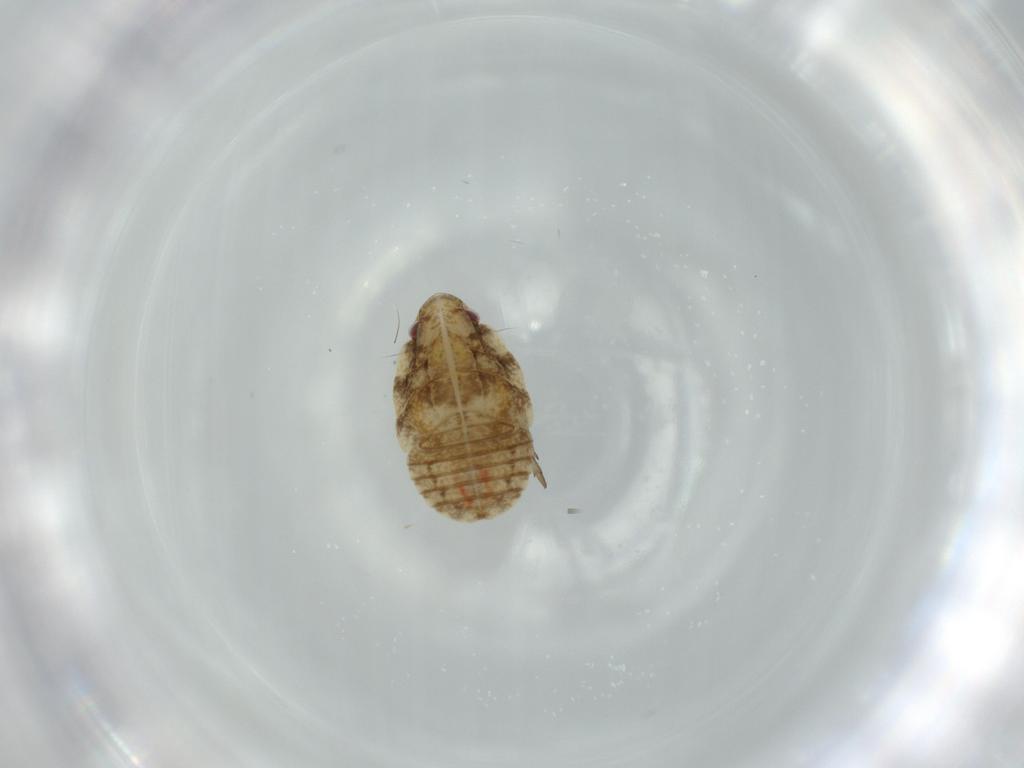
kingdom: Animalia
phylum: Arthropoda
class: Insecta
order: Hemiptera
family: Flatidae
